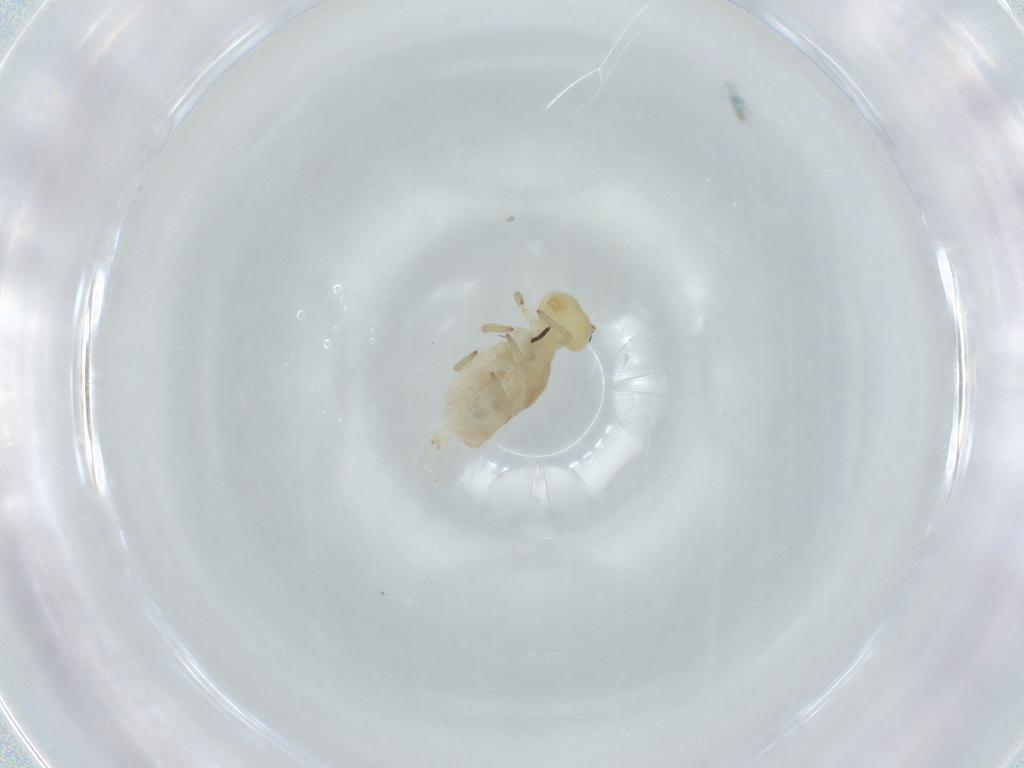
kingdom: Animalia
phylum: Arthropoda
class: Collembola
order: Symphypleona
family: Sminthuridae
